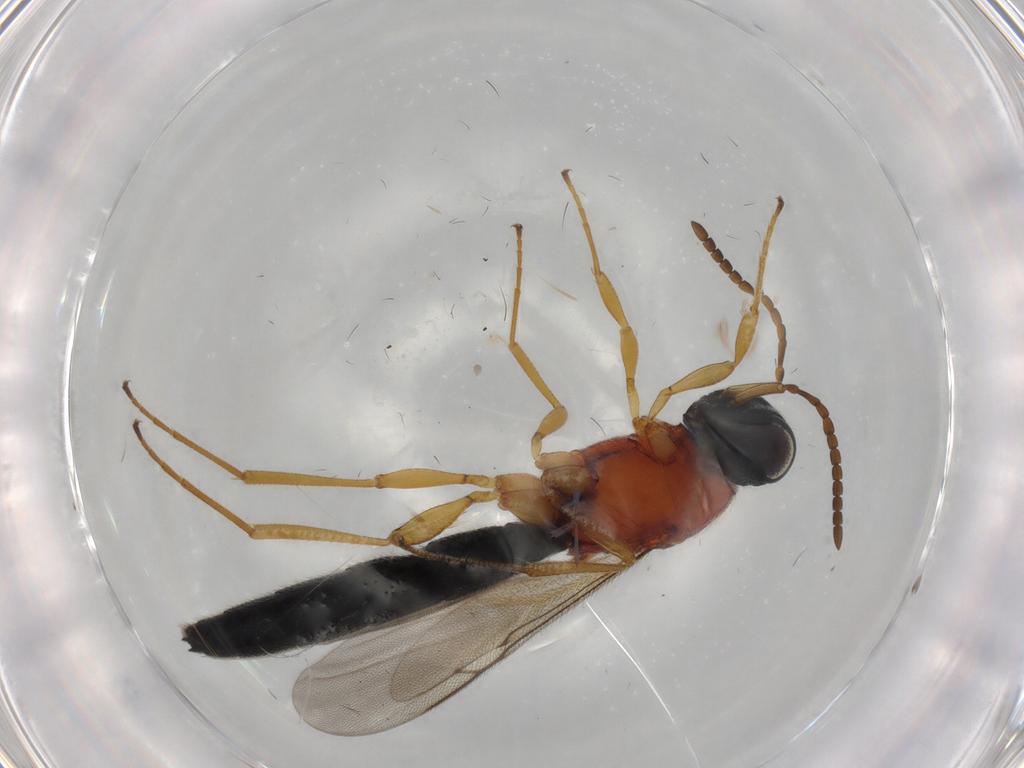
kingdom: Animalia
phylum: Arthropoda
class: Insecta
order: Hymenoptera
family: Scelionidae
